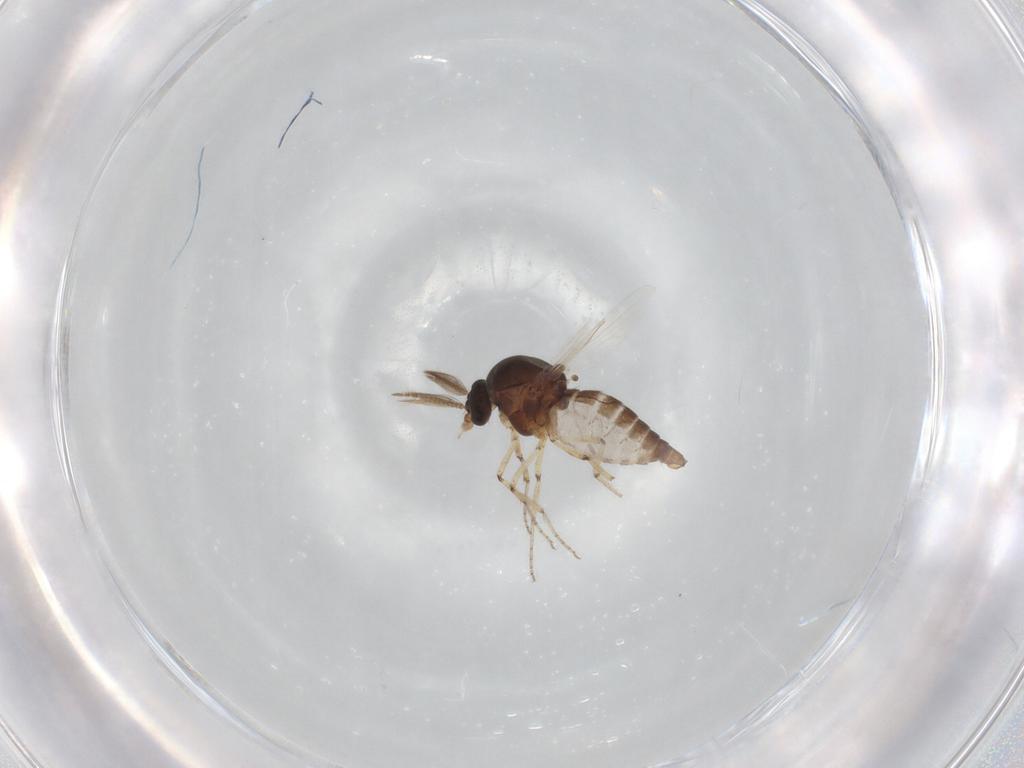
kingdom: Animalia
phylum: Arthropoda
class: Insecta
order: Diptera
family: Ceratopogonidae
